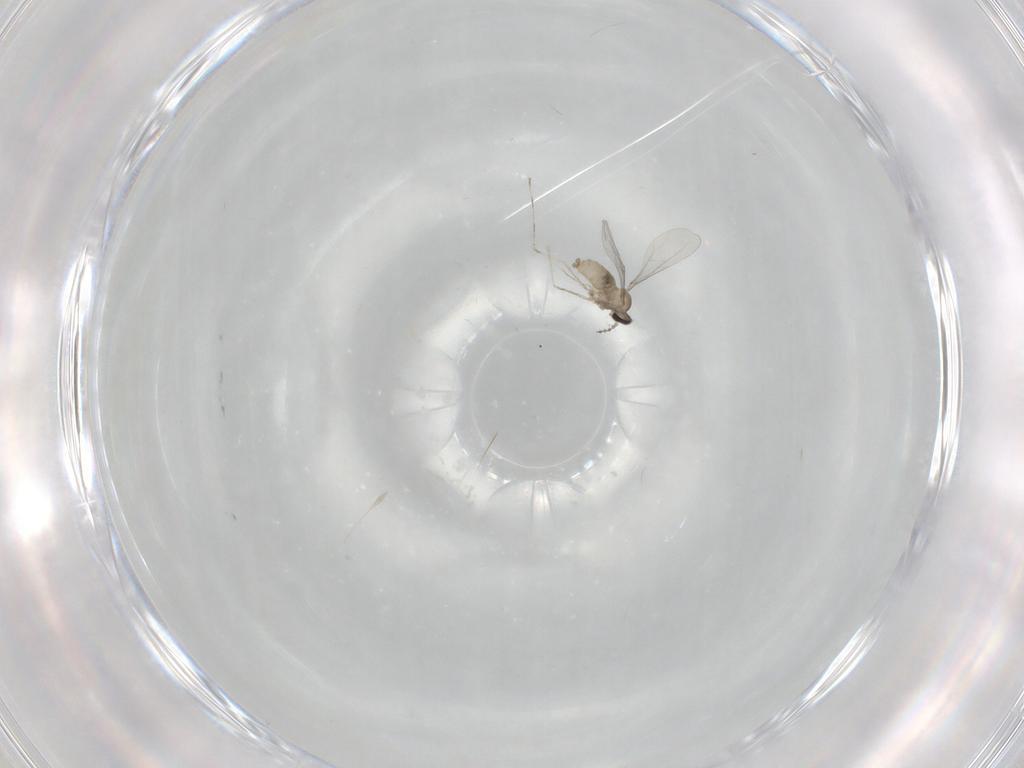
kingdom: Animalia
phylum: Arthropoda
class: Insecta
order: Diptera
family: Cecidomyiidae
